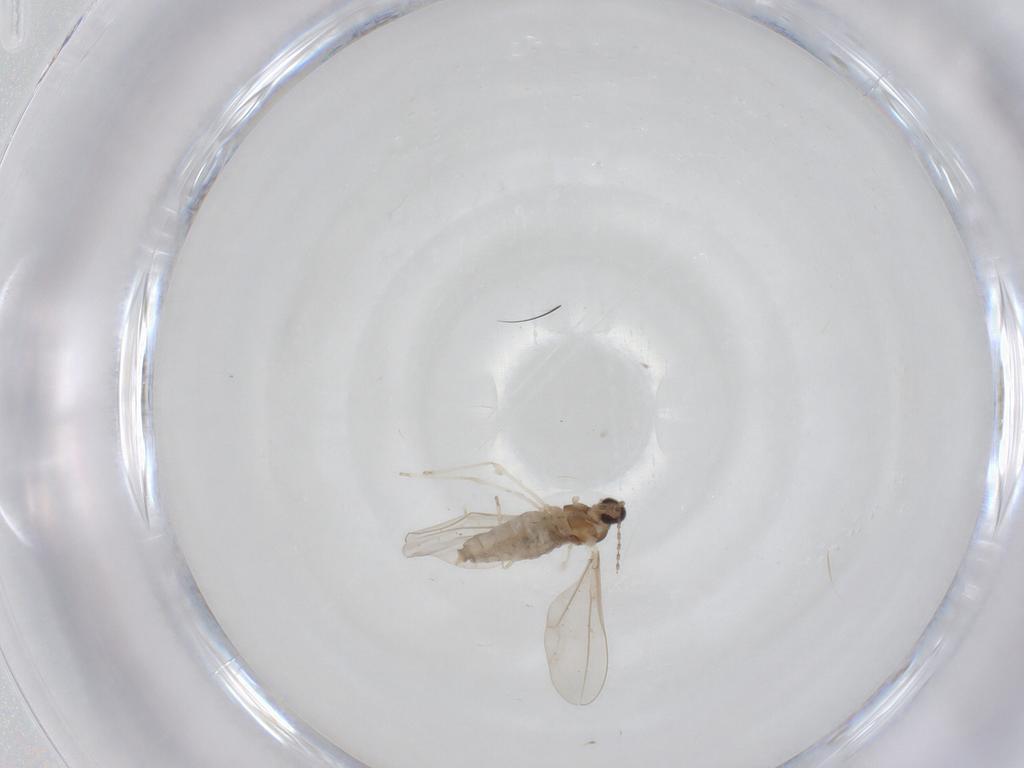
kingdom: Animalia
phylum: Arthropoda
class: Insecta
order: Diptera
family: Cecidomyiidae
